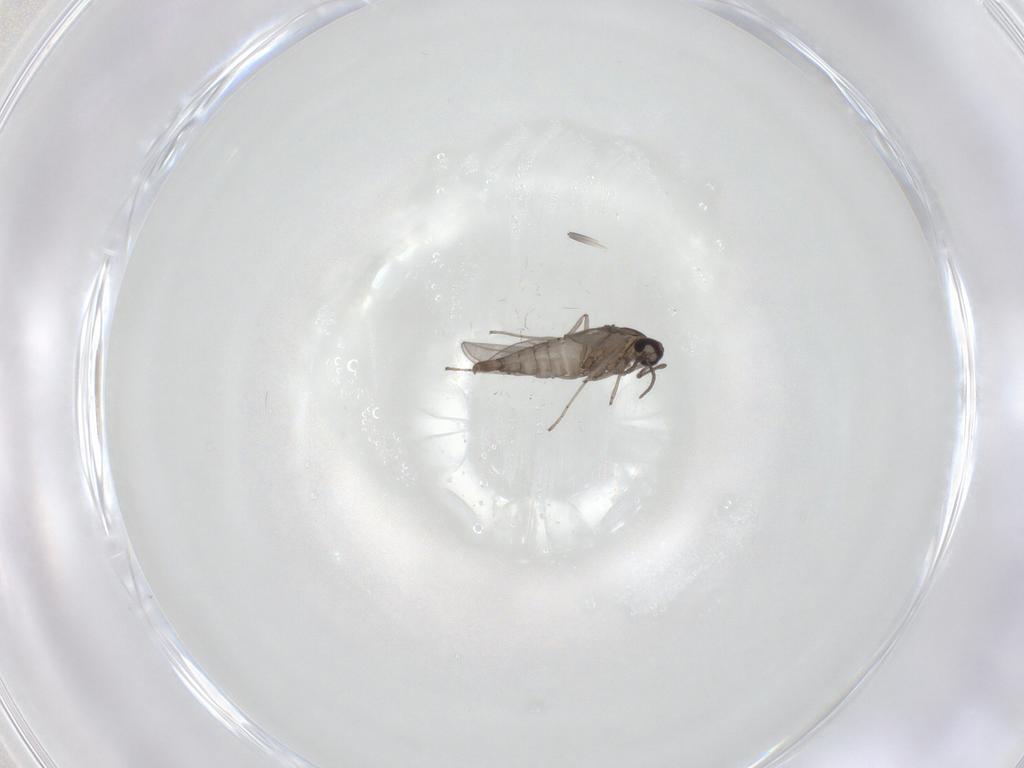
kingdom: Animalia
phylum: Arthropoda
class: Insecta
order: Diptera
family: Cecidomyiidae
